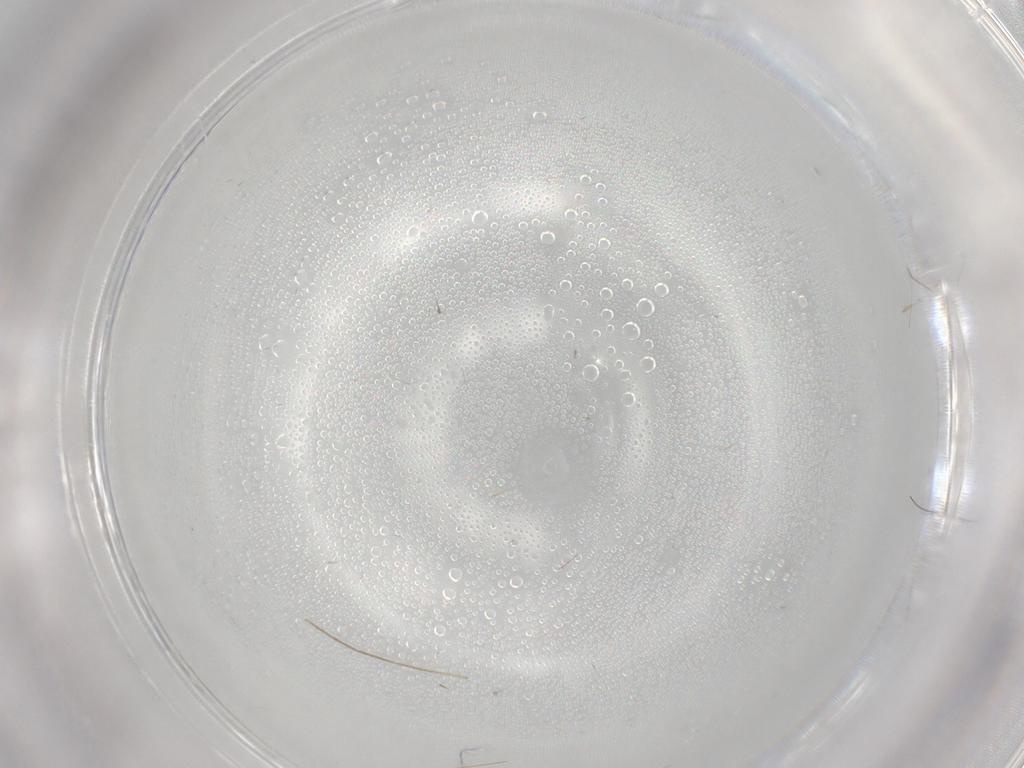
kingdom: Animalia
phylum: Arthropoda
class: Insecta
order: Diptera
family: Chironomidae
